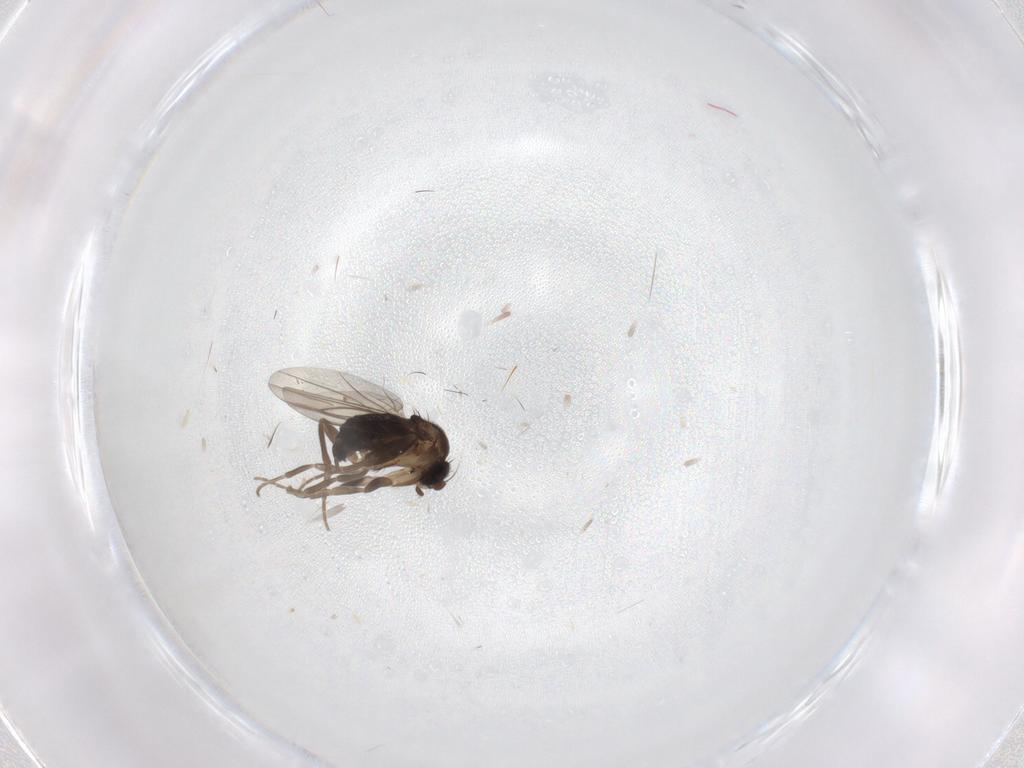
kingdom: Animalia
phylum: Arthropoda
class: Insecta
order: Diptera
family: Phoridae
